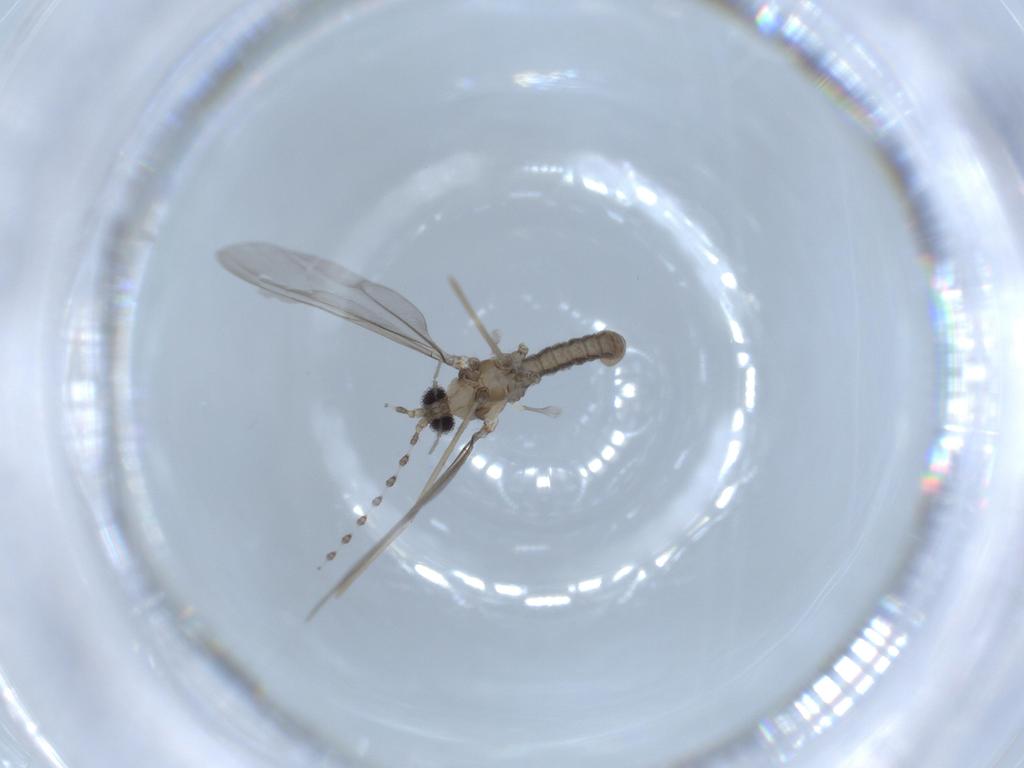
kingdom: Animalia
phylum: Arthropoda
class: Insecta
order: Diptera
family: Cecidomyiidae
